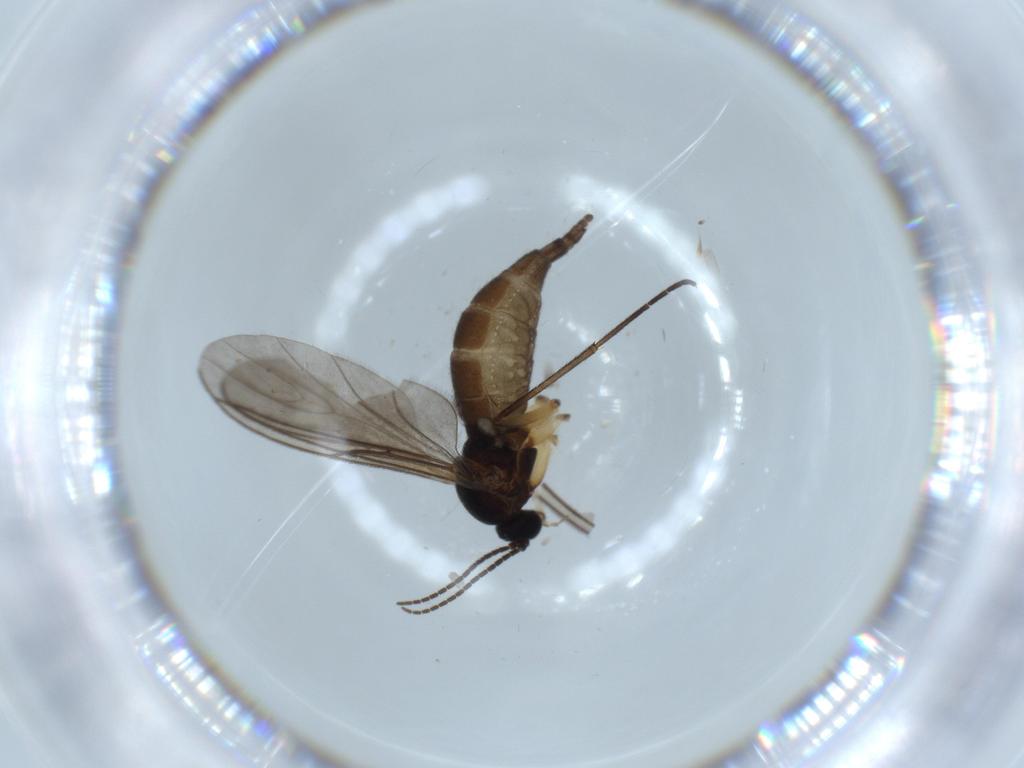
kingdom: Animalia
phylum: Arthropoda
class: Insecta
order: Diptera
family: Sciaridae
